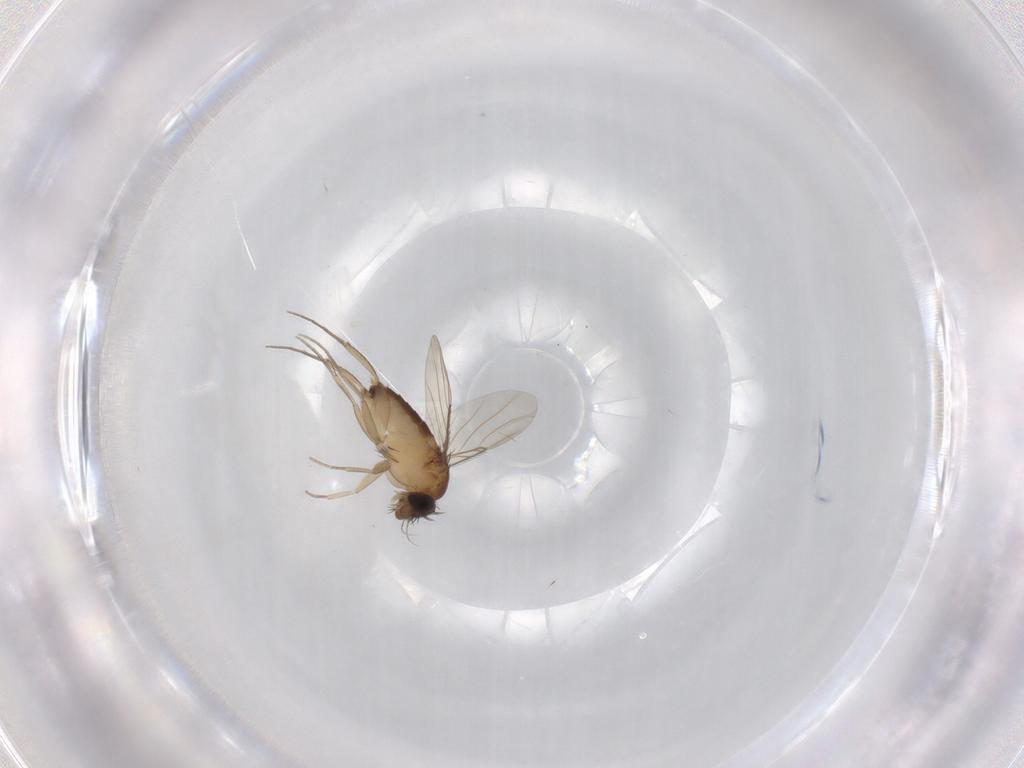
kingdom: Animalia
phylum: Arthropoda
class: Insecta
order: Diptera
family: Phoridae
